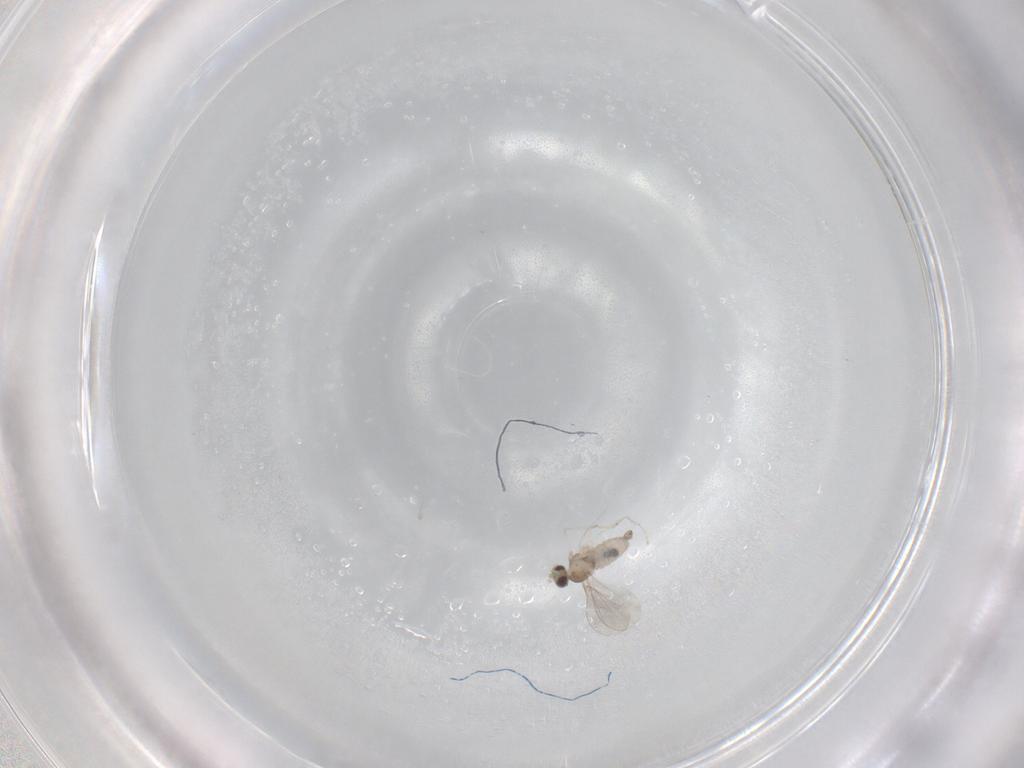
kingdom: Animalia
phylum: Arthropoda
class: Insecta
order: Diptera
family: Cecidomyiidae
